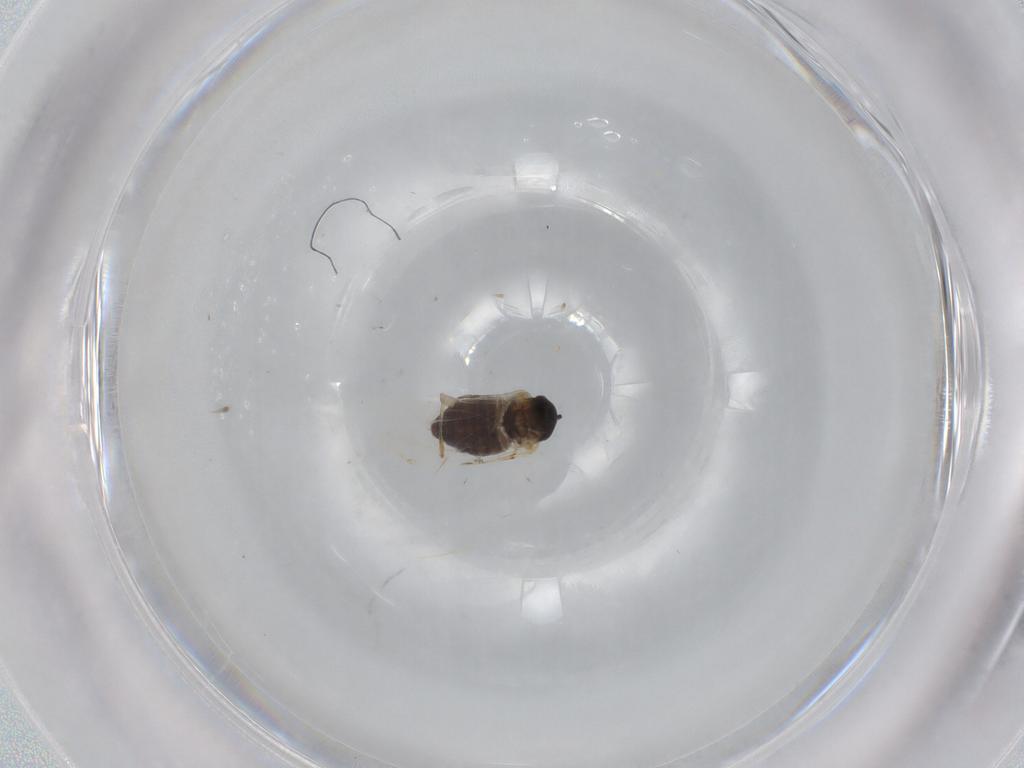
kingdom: Animalia
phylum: Arthropoda
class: Insecta
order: Diptera
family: Cecidomyiidae
